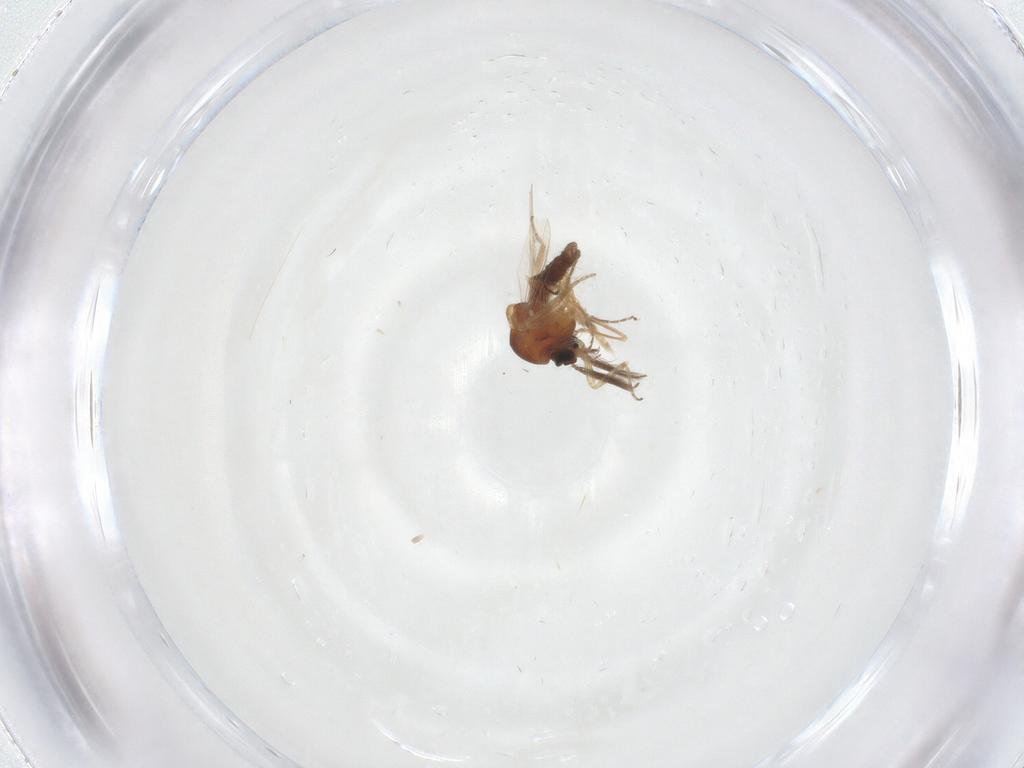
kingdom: Animalia
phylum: Arthropoda
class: Insecta
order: Diptera
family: Ceratopogonidae
